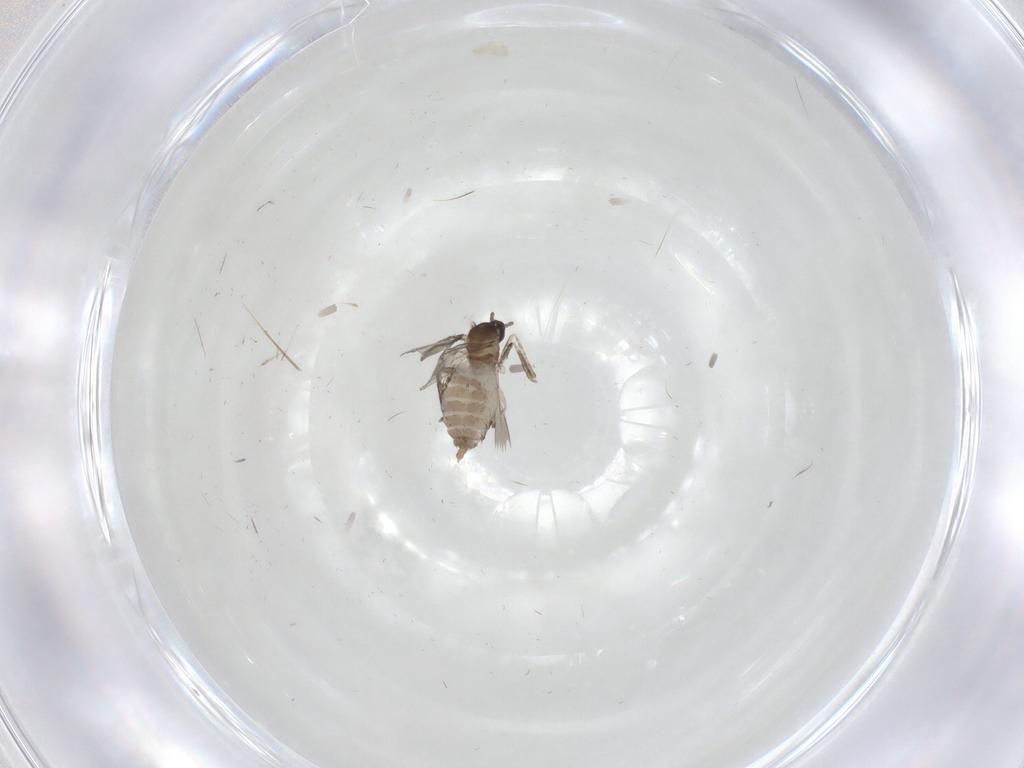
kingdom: Animalia
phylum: Arthropoda
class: Insecta
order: Diptera
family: Cecidomyiidae
